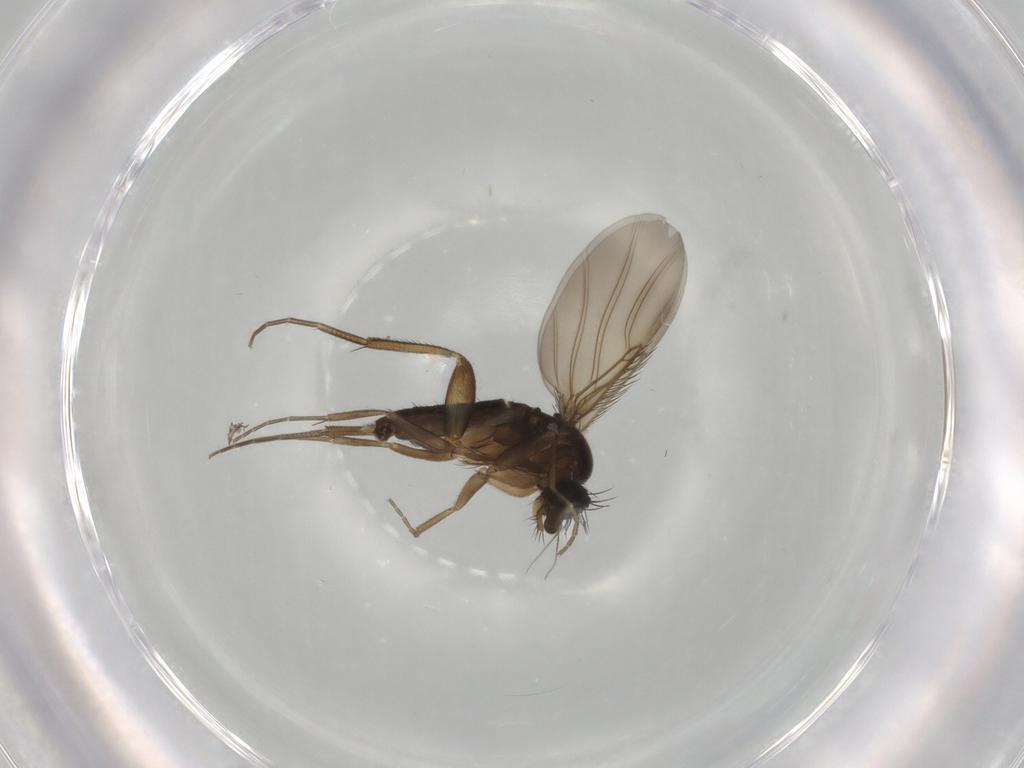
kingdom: Animalia
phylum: Arthropoda
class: Insecta
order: Diptera
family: Phoridae
